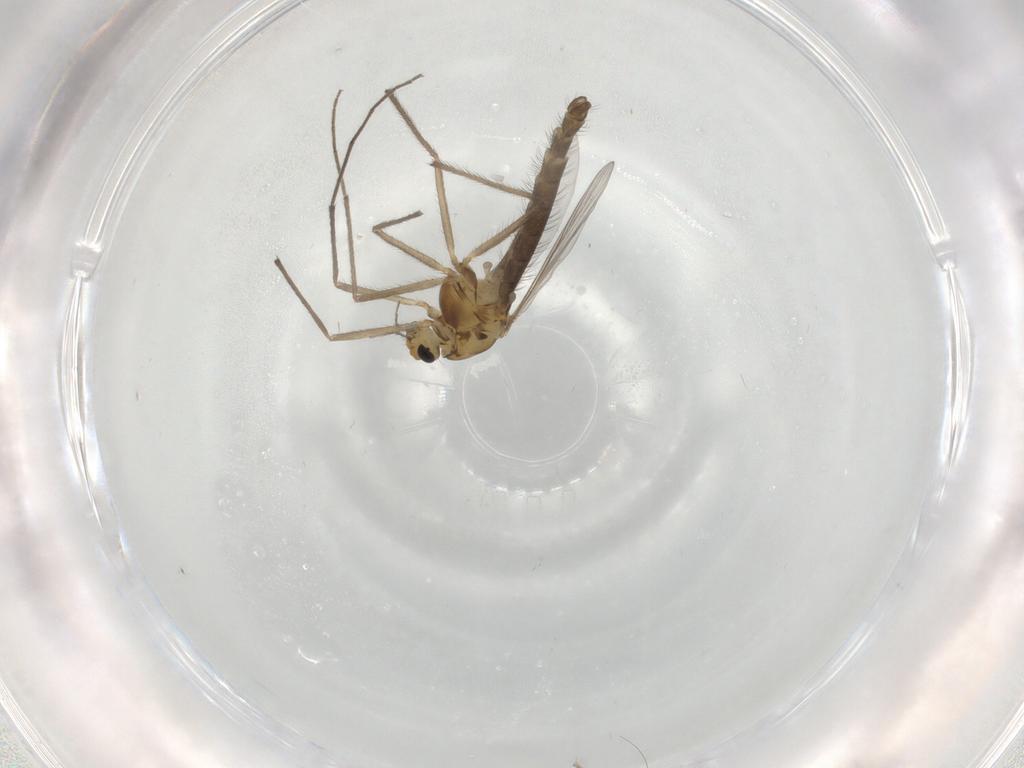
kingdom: Animalia
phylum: Arthropoda
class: Insecta
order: Diptera
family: Chironomidae
